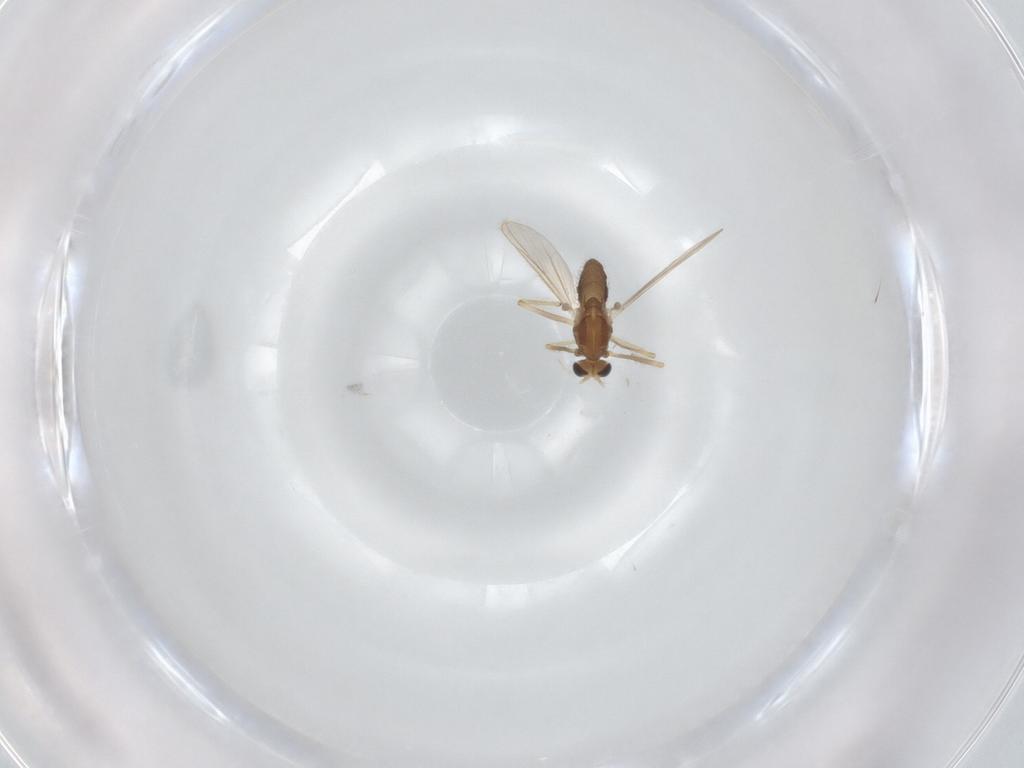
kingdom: Animalia
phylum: Arthropoda
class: Insecta
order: Diptera
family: Chironomidae
